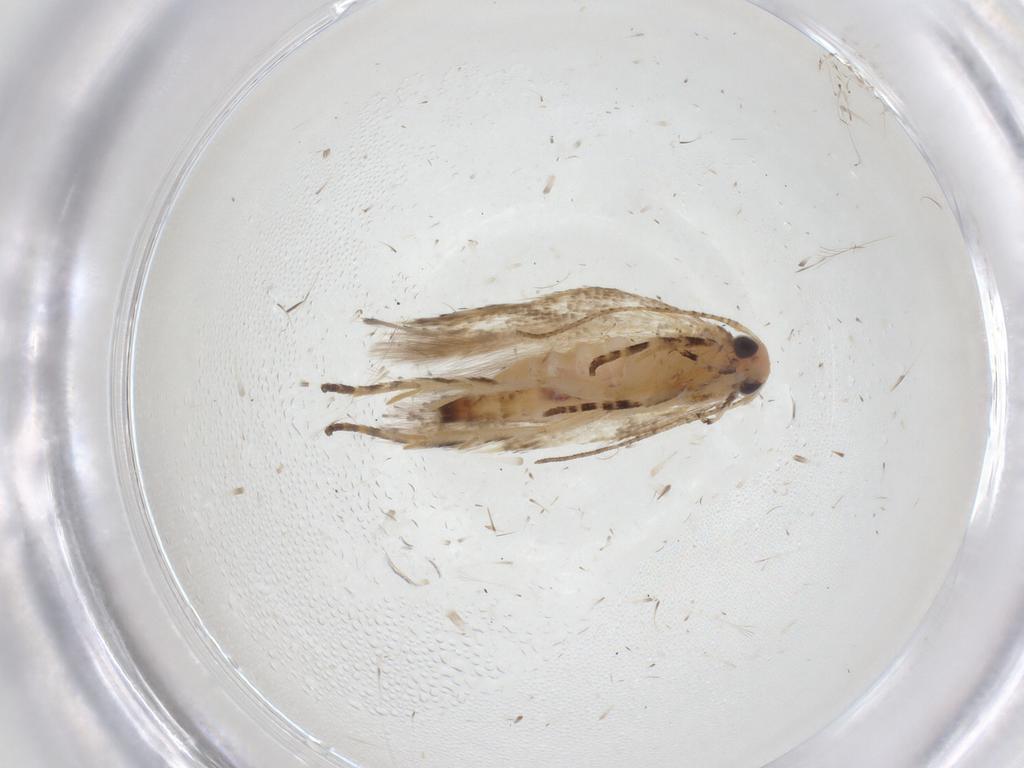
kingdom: Animalia
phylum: Arthropoda
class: Insecta
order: Lepidoptera
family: Gelechiidae
